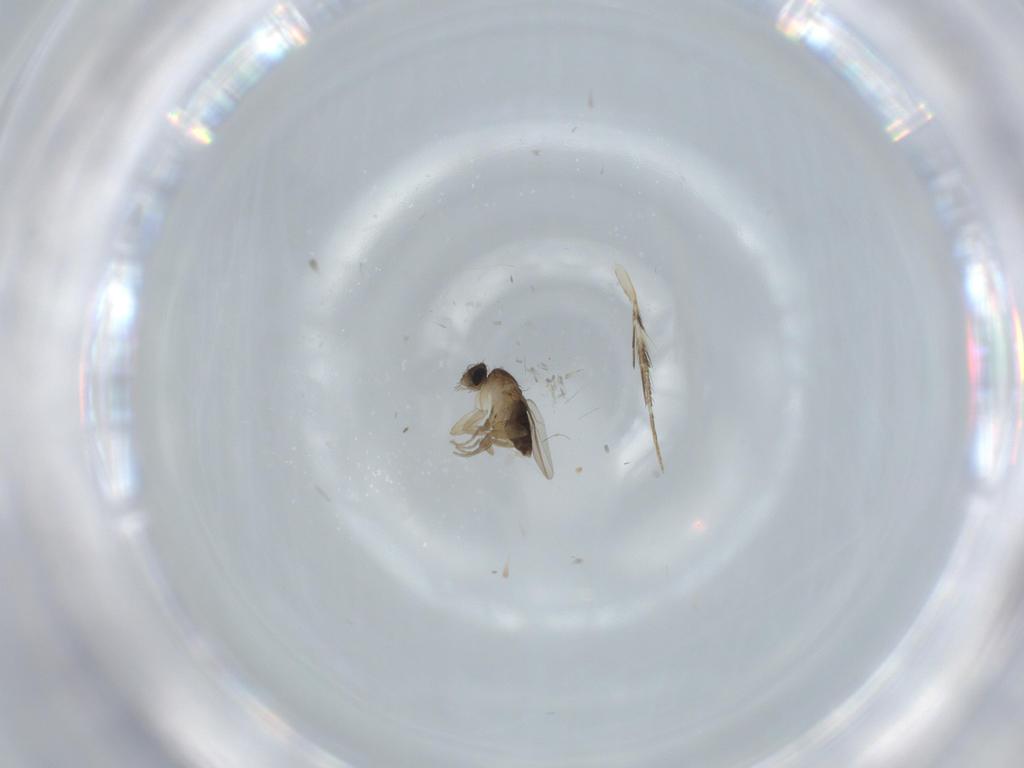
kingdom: Animalia
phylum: Arthropoda
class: Insecta
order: Diptera
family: Phoridae
